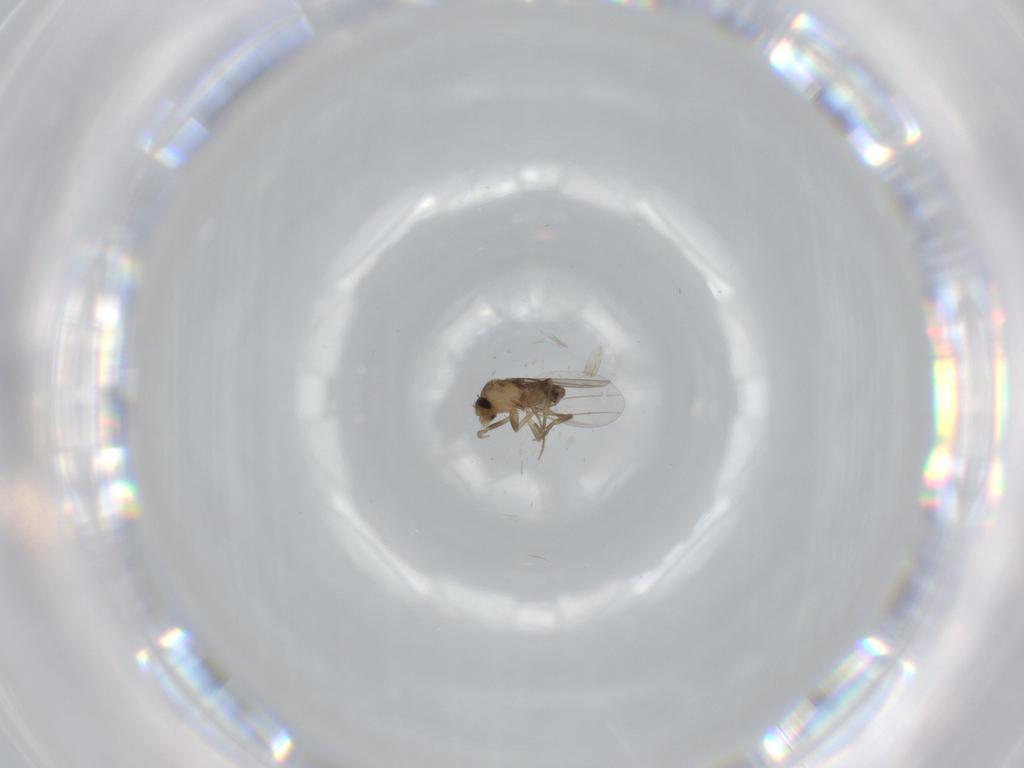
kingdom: Animalia
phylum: Arthropoda
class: Insecta
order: Diptera
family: Phoridae
